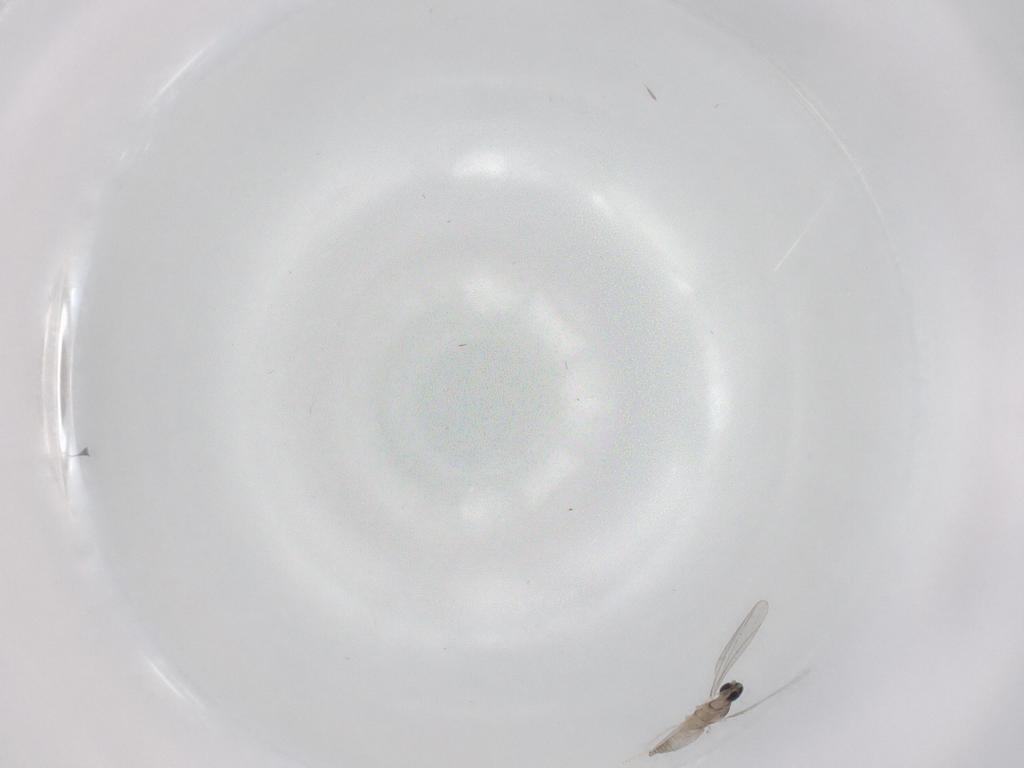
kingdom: Animalia
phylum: Arthropoda
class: Insecta
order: Diptera
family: Cecidomyiidae
